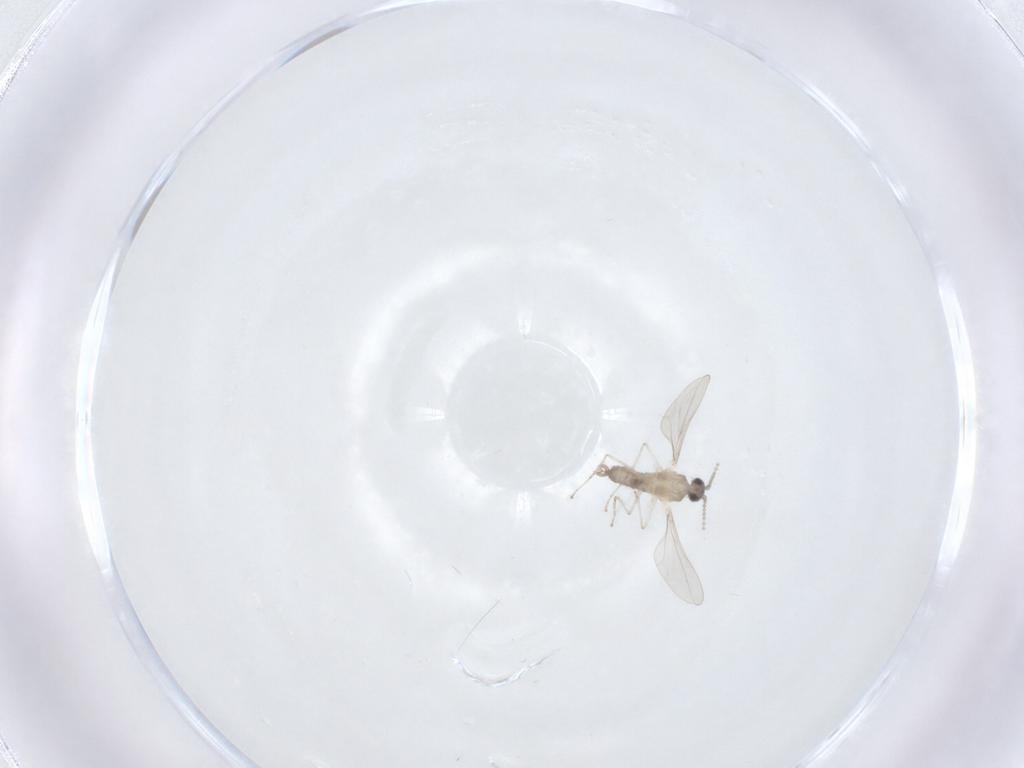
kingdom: Animalia
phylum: Arthropoda
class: Insecta
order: Diptera
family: Cecidomyiidae
